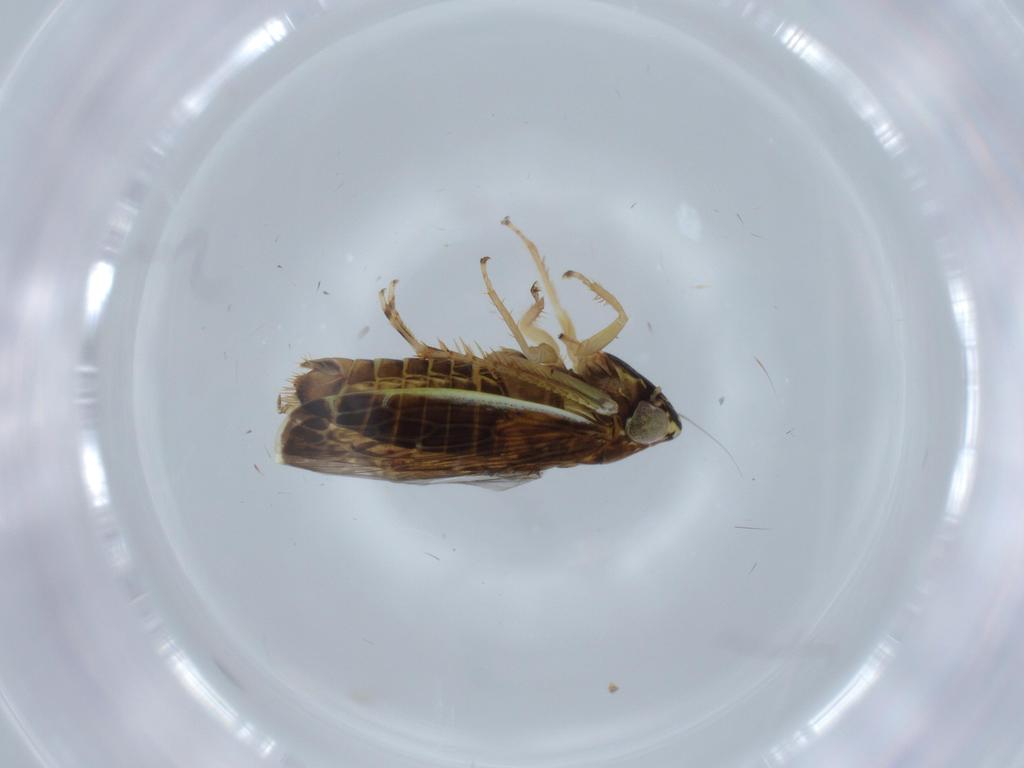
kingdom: Animalia
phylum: Arthropoda
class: Insecta
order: Hemiptera
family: Cicadellidae
